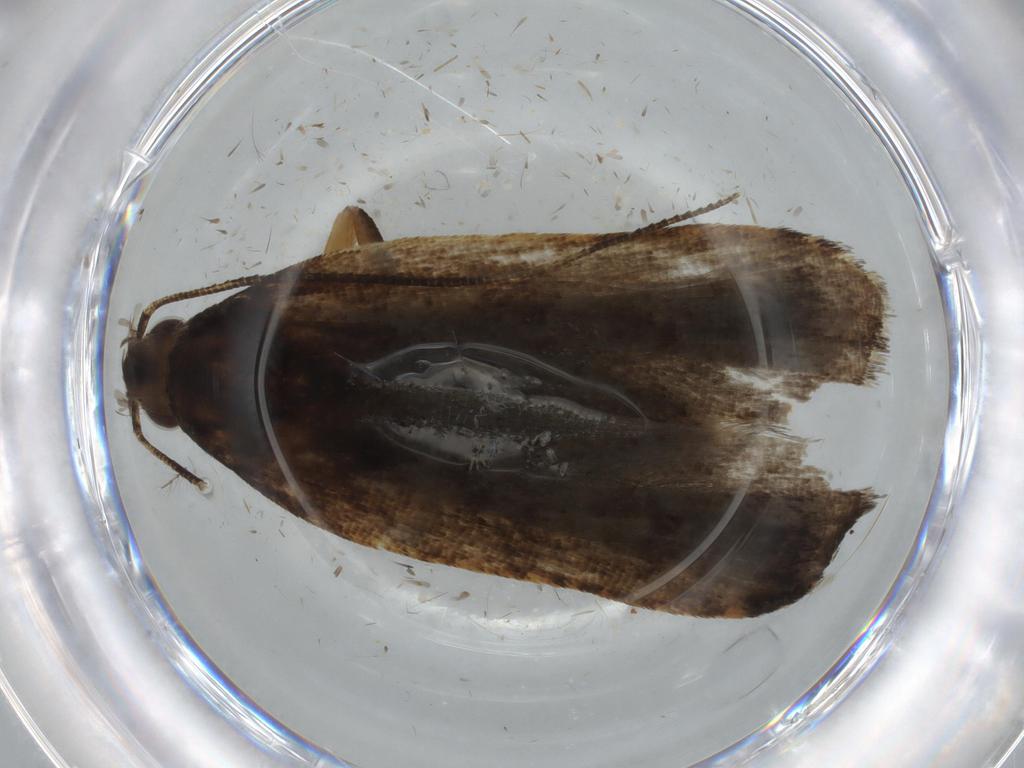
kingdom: Animalia
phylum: Arthropoda
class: Insecta
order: Lepidoptera
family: Gelechiidae
